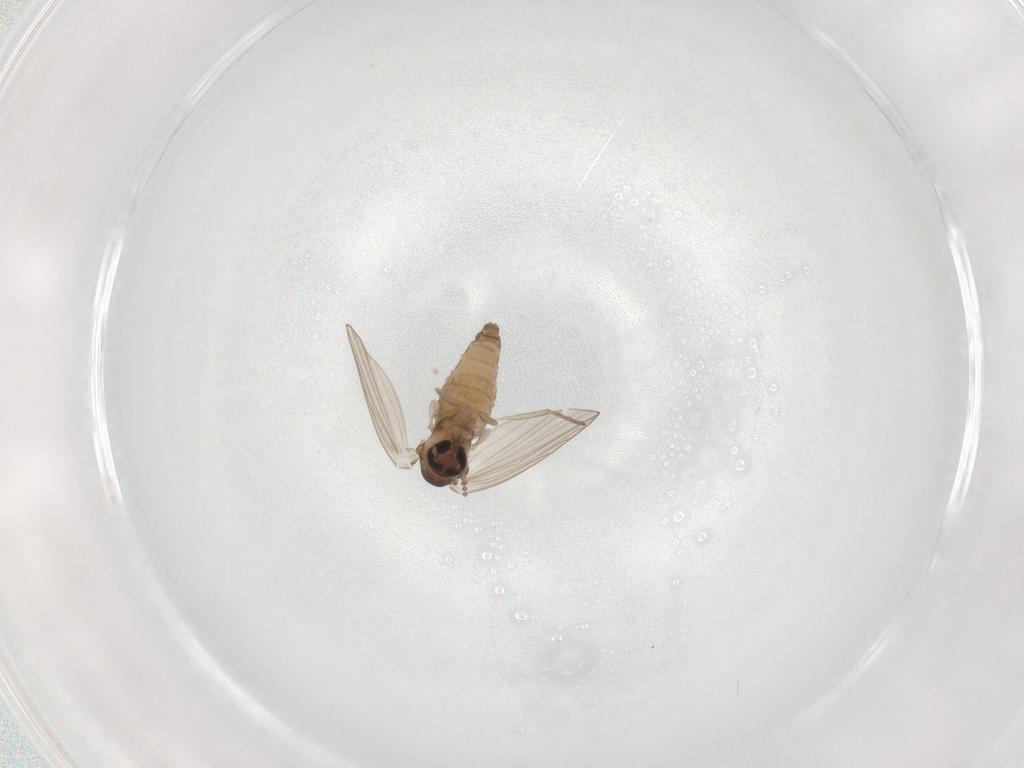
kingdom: Animalia
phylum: Arthropoda
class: Insecta
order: Diptera
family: Psychodidae
